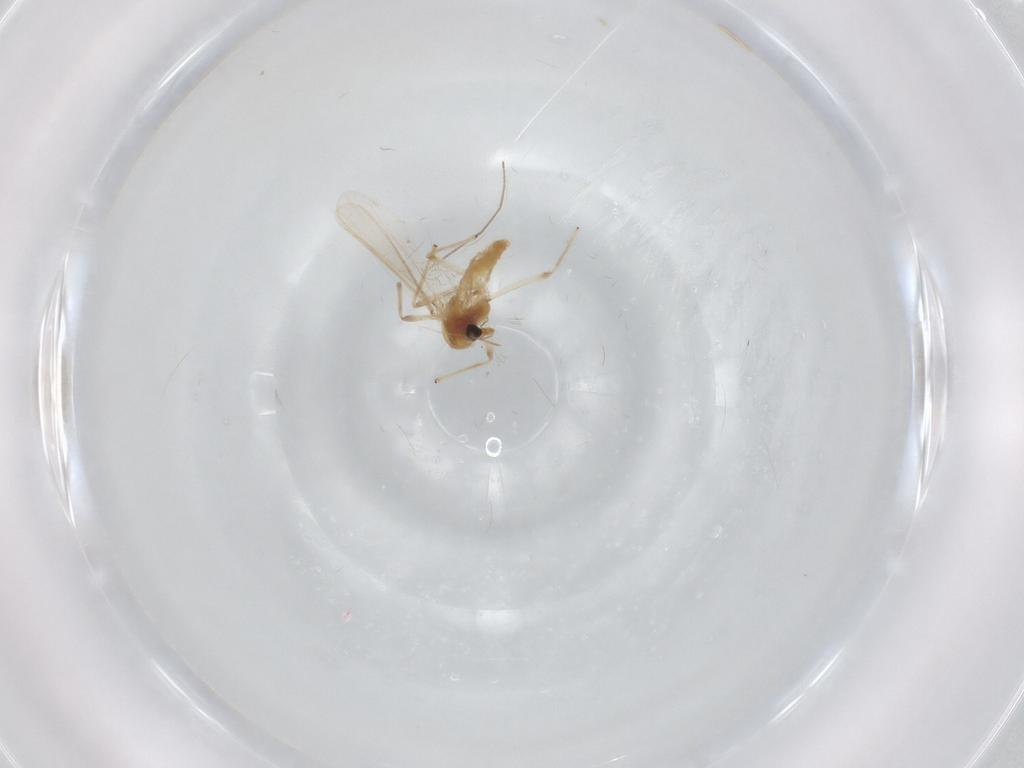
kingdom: Animalia
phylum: Arthropoda
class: Insecta
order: Diptera
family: Chironomidae
